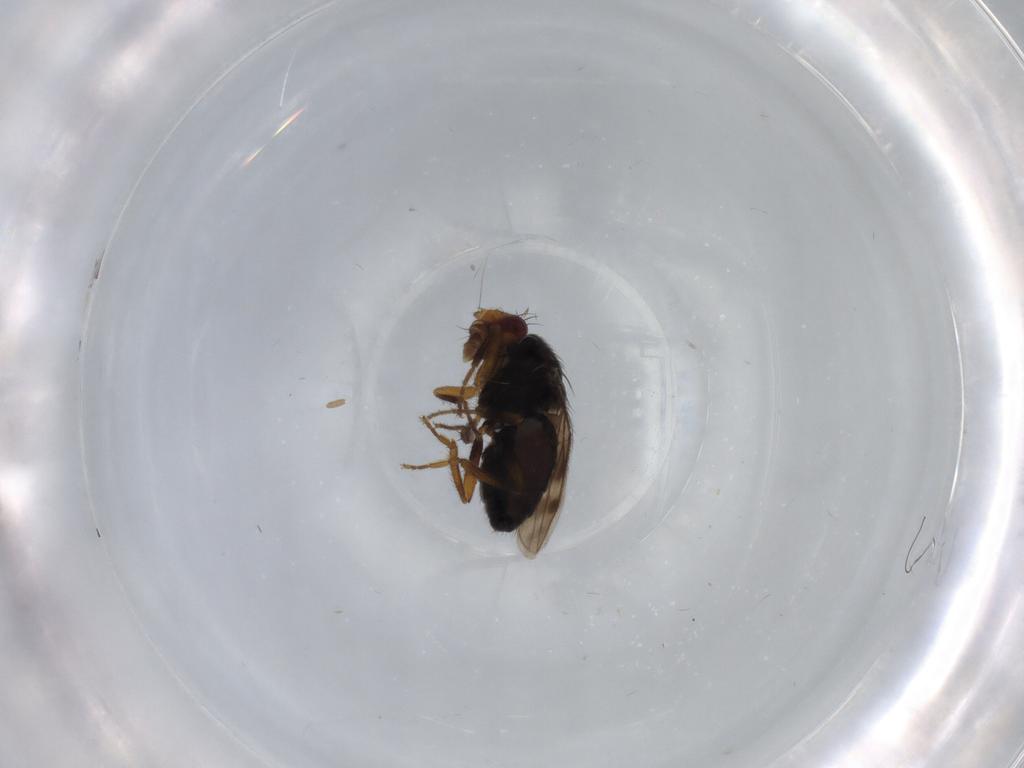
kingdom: Animalia
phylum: Arthropoda
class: Insecta
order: Diptera
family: Sphaeroceridae
